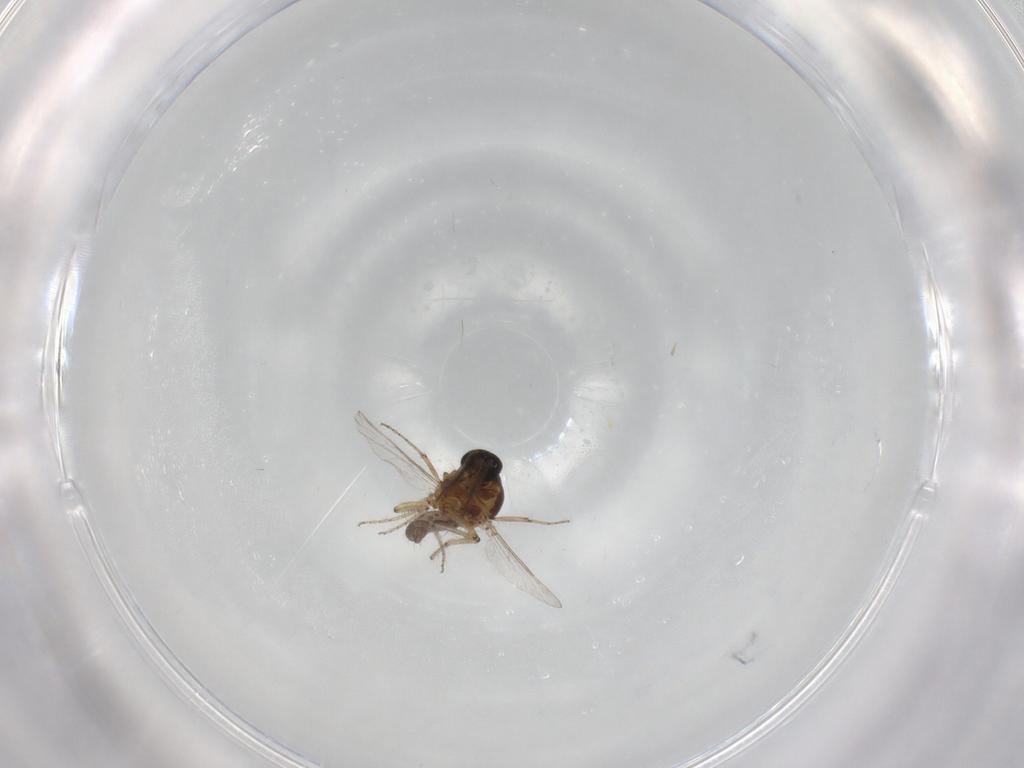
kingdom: Animalia
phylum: Arthropoda
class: Insecta
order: Diptera
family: Ceratopogonidae
